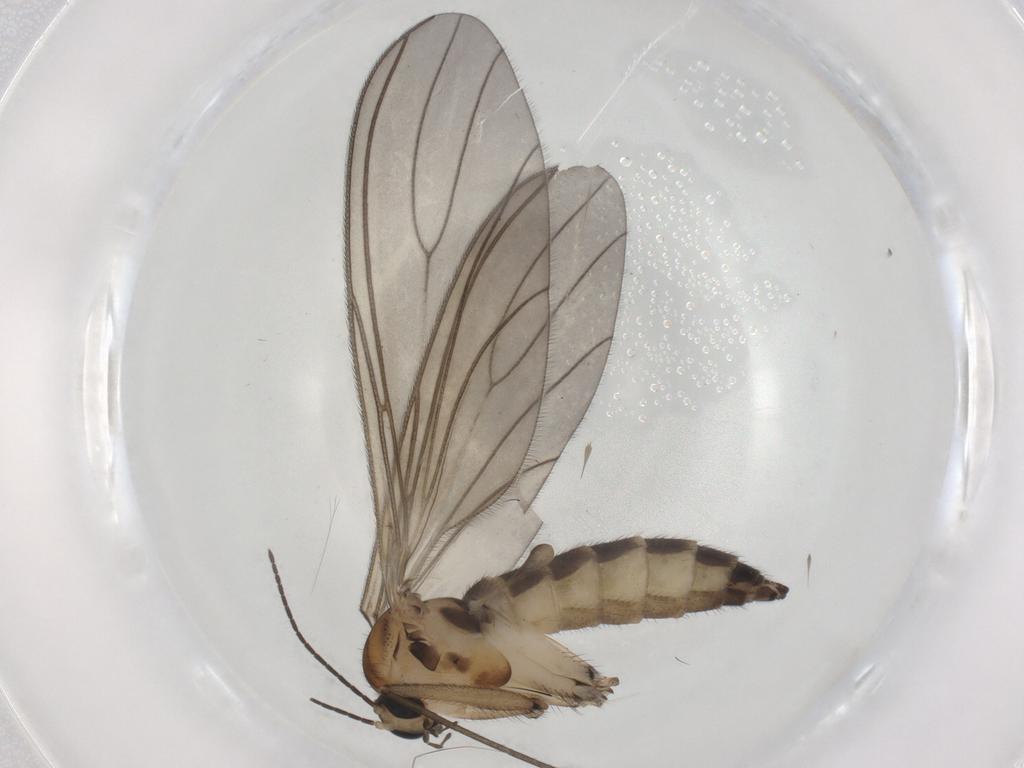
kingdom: Animalia
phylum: Arthropoda
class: Insecta
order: Diptera
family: Sciaridae
